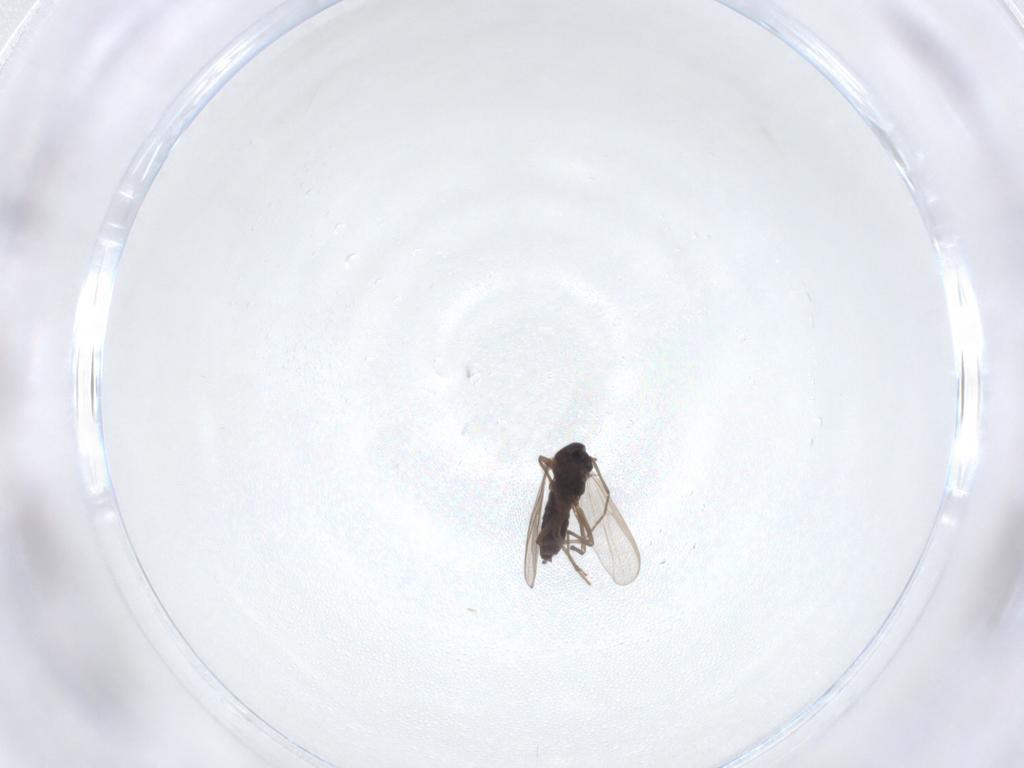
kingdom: Animalia
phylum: Arthropoda
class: Insecta
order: Diptera
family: Chironomidae
